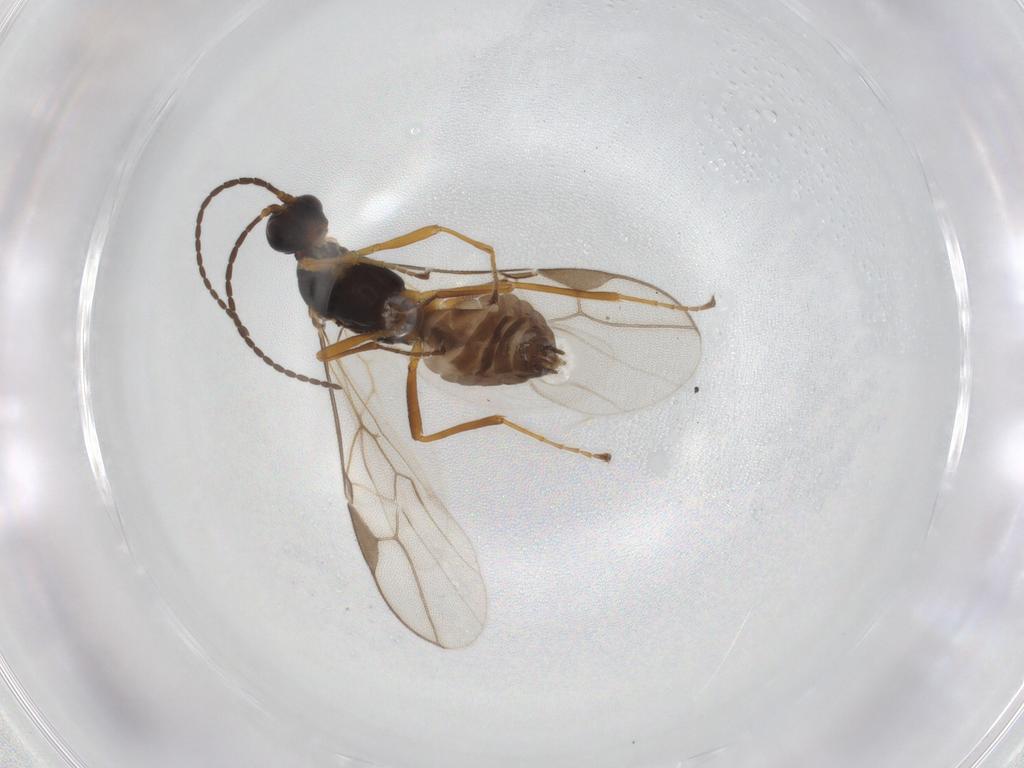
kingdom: Animalia
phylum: Arthropoda
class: Insecta
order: Hymenoptera
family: Braconidae
